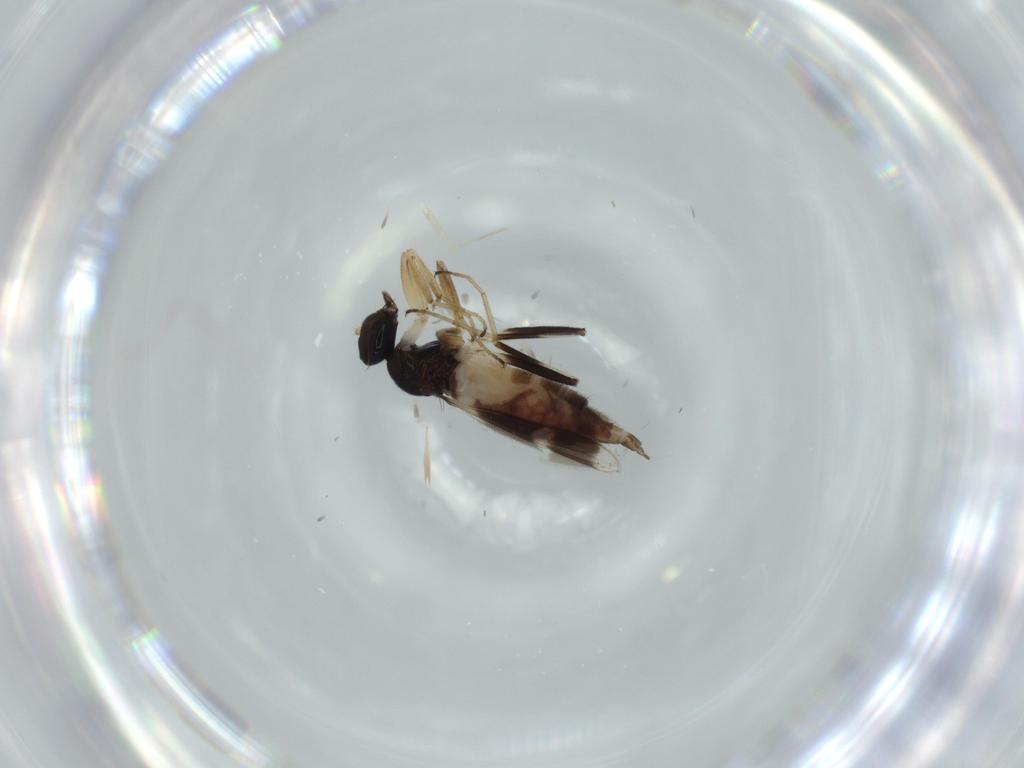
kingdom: Animalia
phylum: Arthropoda
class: Insecta
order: Diptera
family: Hybotidae
